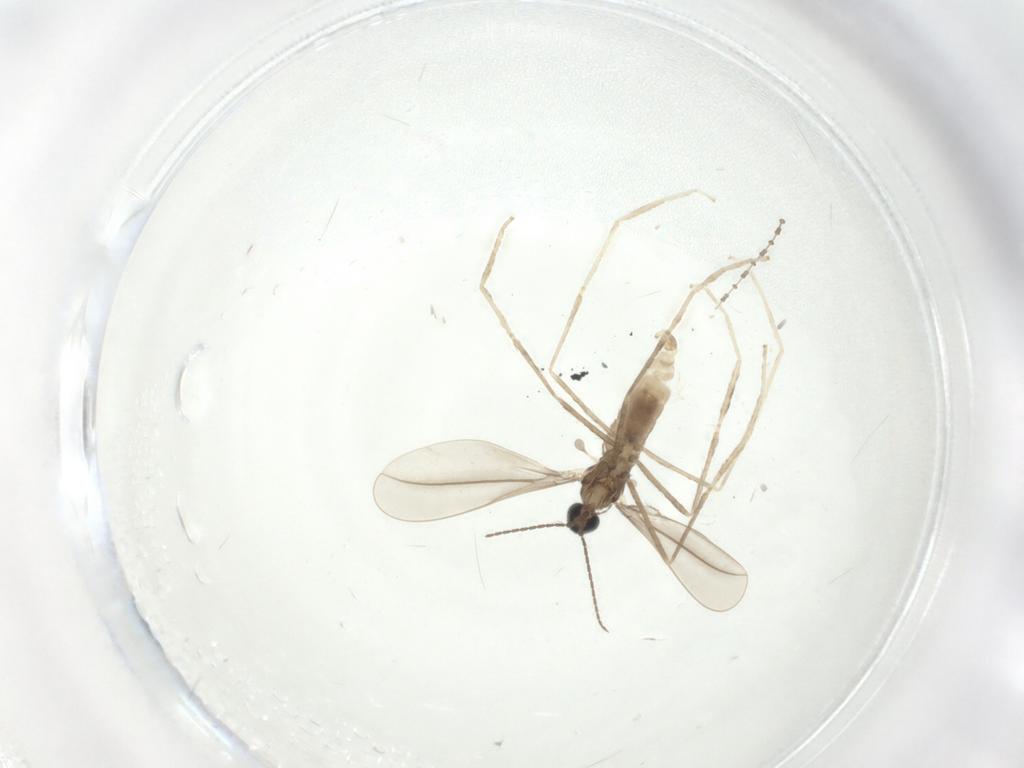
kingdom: Animalia
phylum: Arthropoda
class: Insecta
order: Diptera
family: Cecidomyiidae
